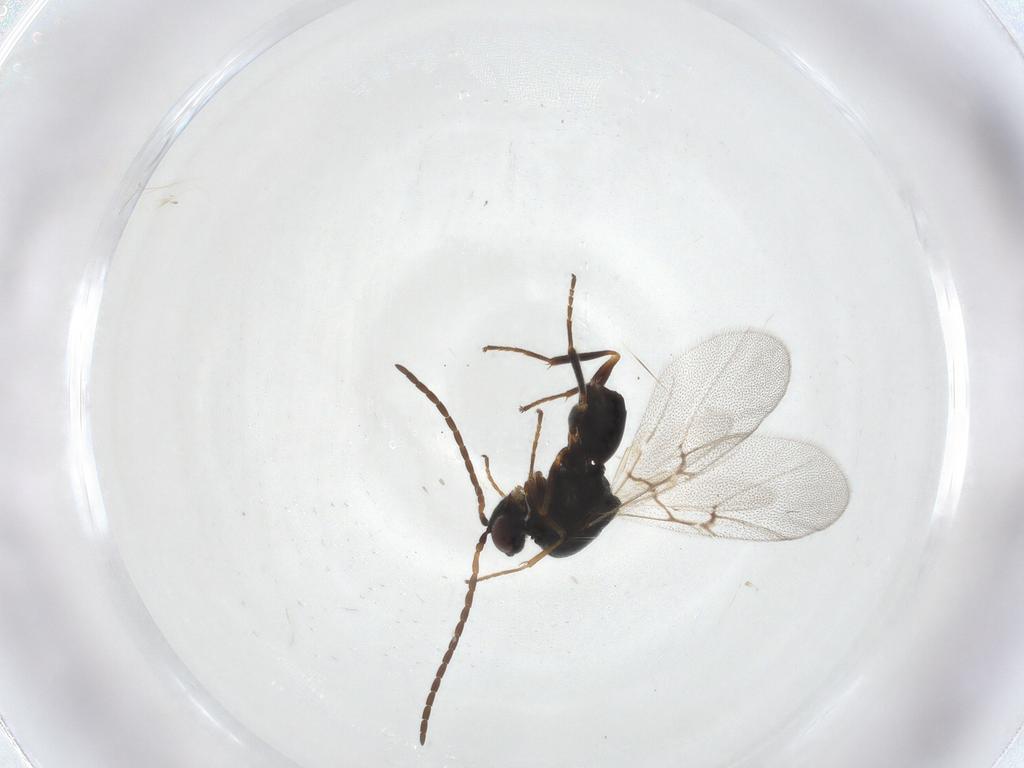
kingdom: Animalia
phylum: Arthropoda
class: Insecta
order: Hymenoptera
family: Cynipidae
